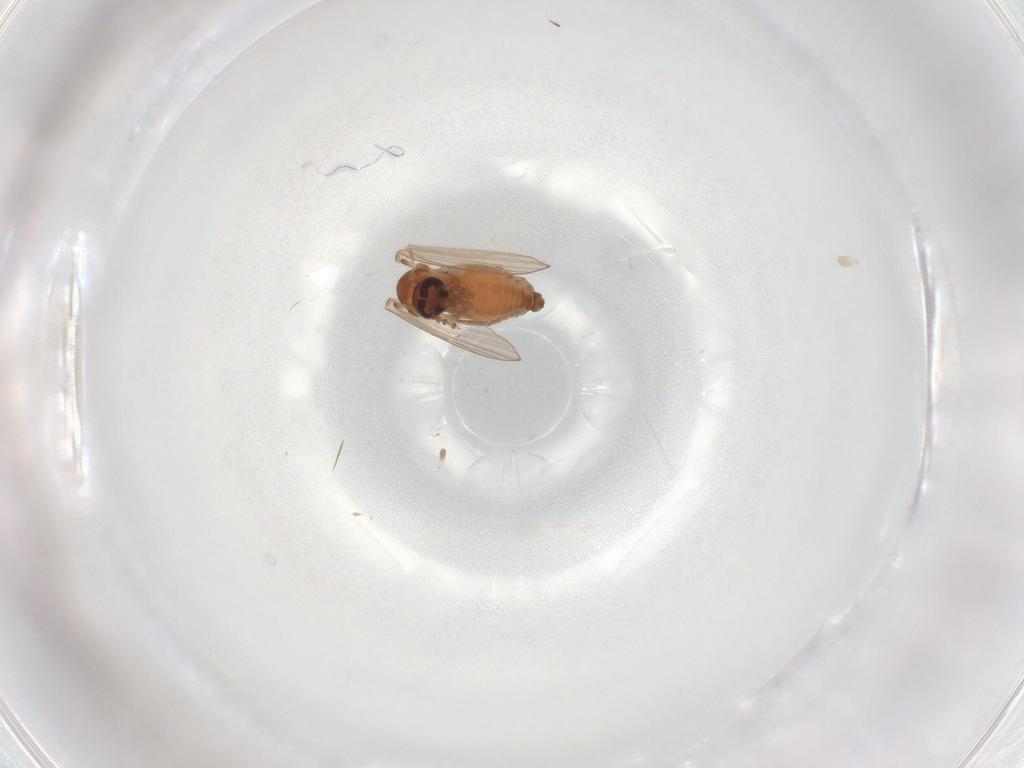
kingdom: Animalia
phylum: Arthropoda
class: Insecta
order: Diptera
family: Psychodidae
